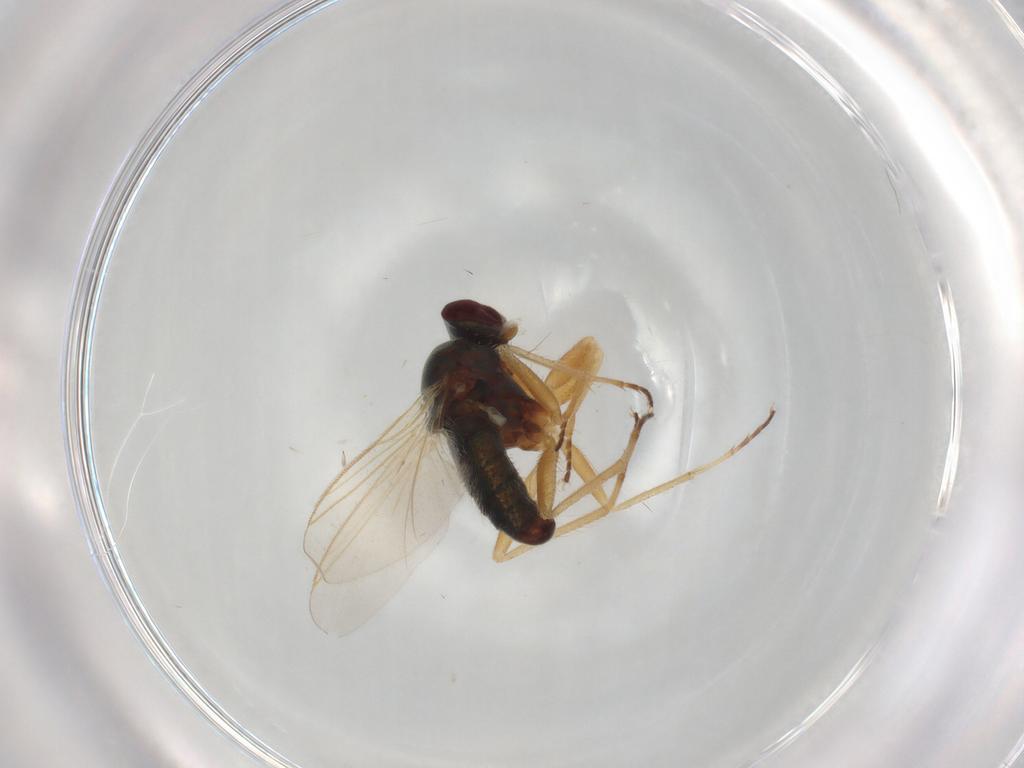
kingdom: Animalia
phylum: Arthropoda
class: Insecta
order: Diptera
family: Dolichopodidae
